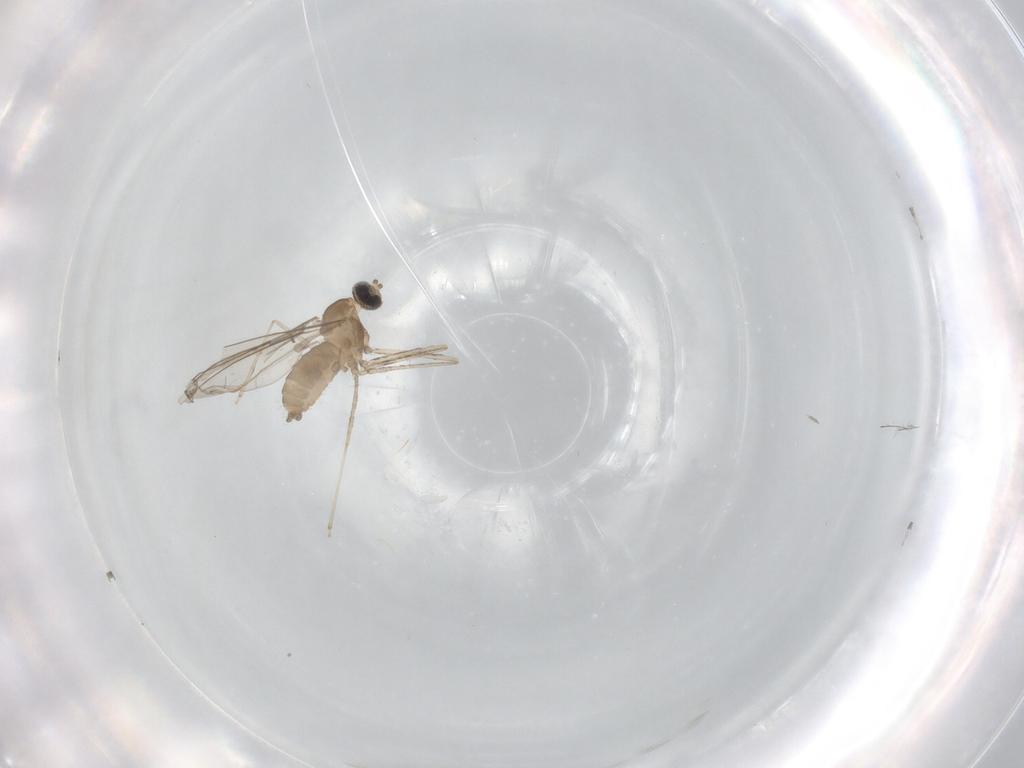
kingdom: Animalia
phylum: Arthropoda
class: Insecta
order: Diptera
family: Cecidomyiidae
